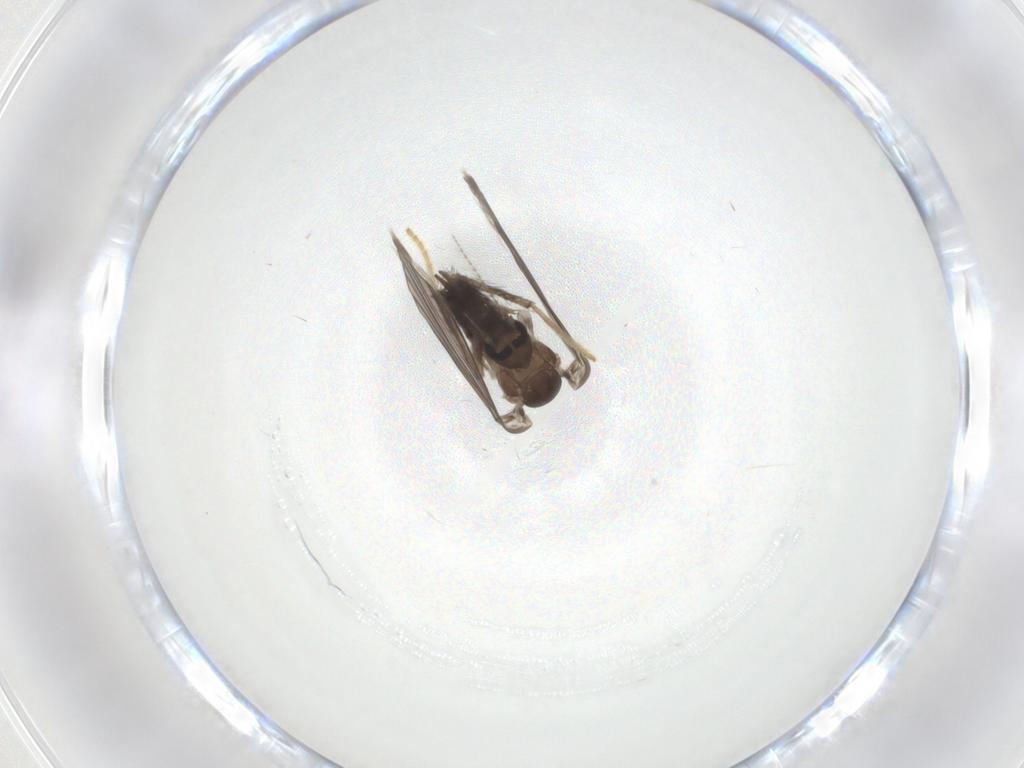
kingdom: Animalia
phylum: Arthropoda
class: Insecta
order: Diptera
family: Psychodidae
